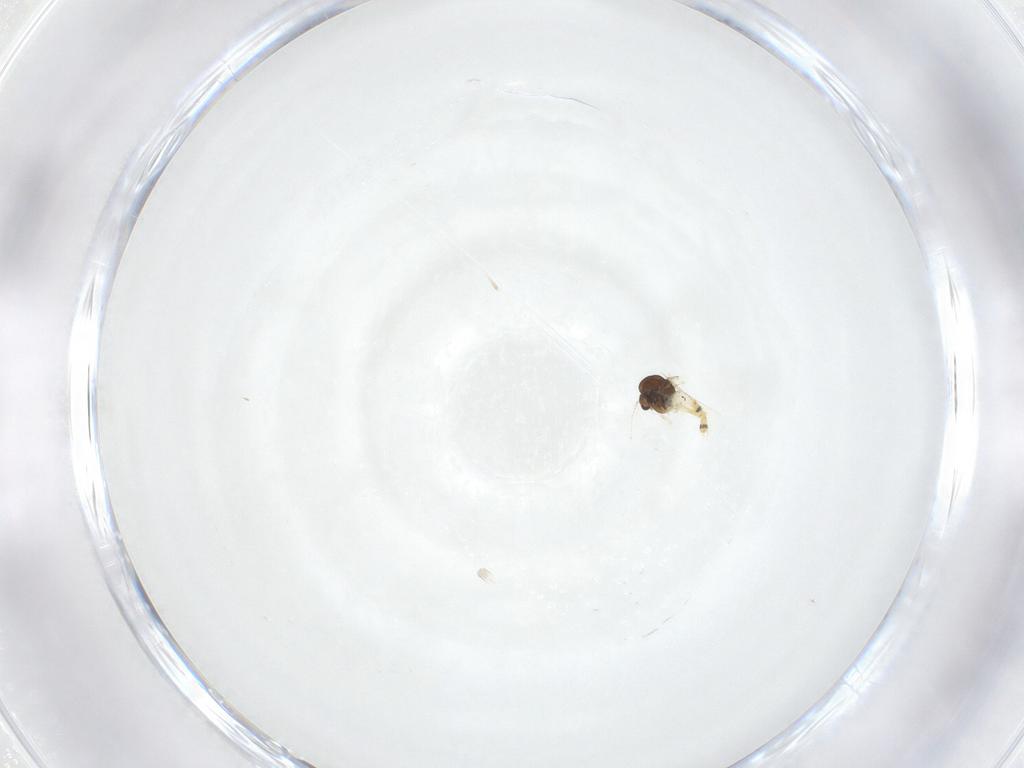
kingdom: Animalia
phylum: Arthropoda
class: Insecta
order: Diptera
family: Chironomidae
